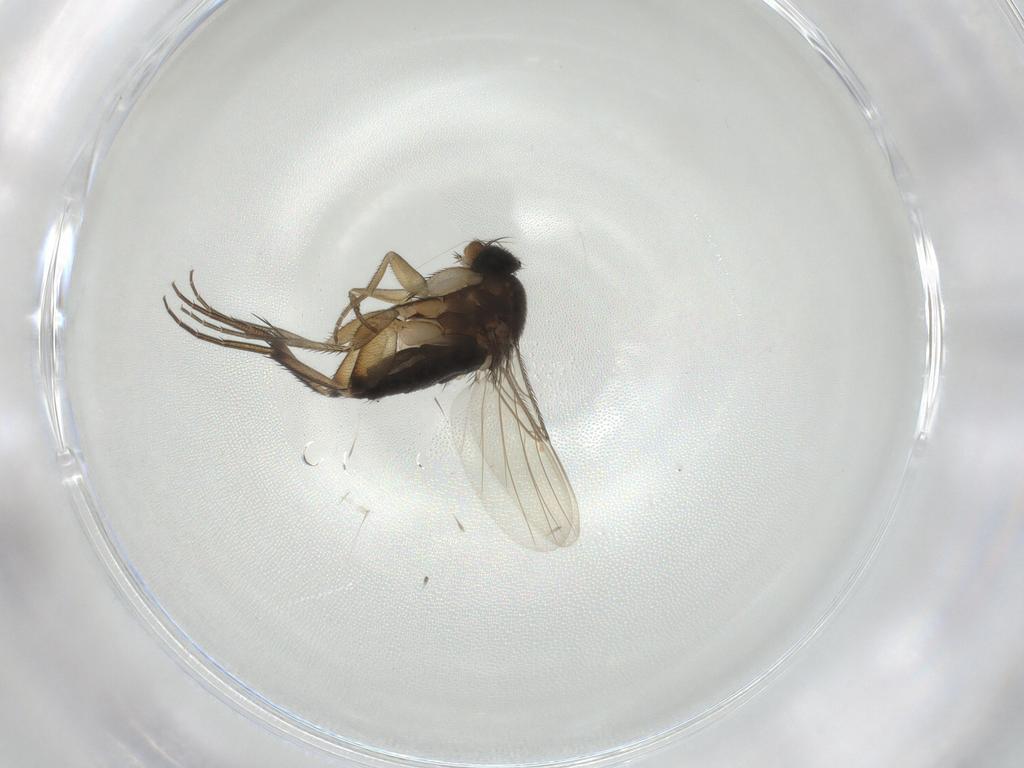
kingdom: Animalia
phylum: Arthropoda
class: Insecta
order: Diptera
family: Phoridae
